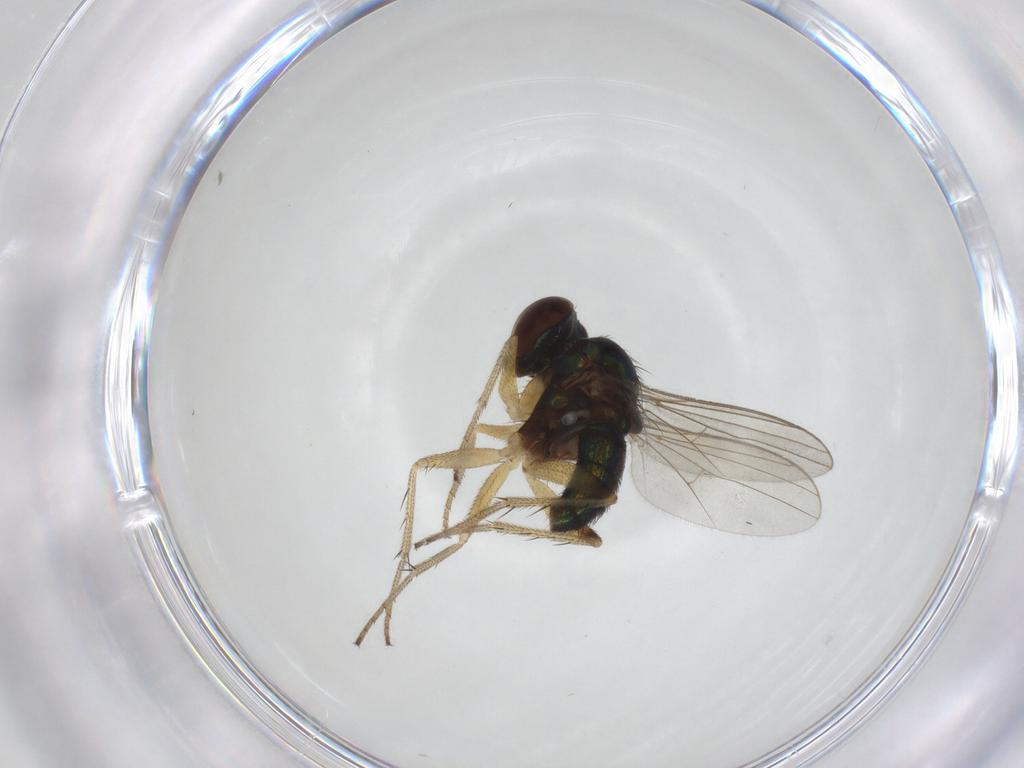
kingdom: Animalia
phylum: Arthropoda
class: Insecta
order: Diptera
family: Dolichopodidae
